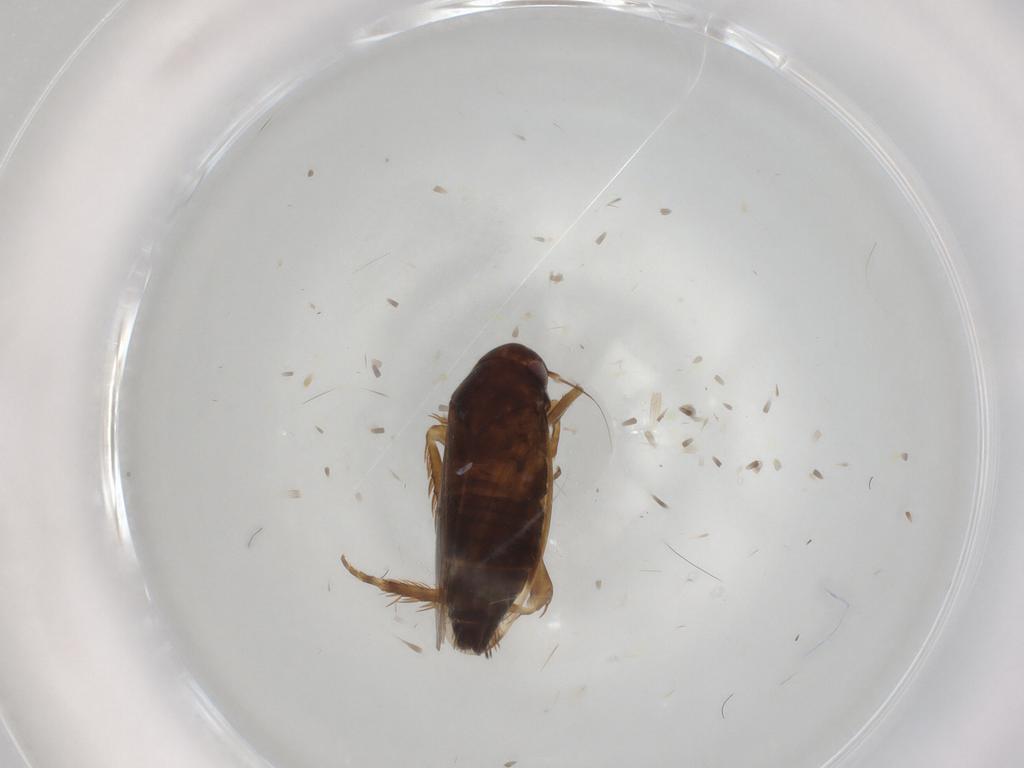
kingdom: Animalia
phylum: Arthropoda
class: Insecta
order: Hemiptera
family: Cicadellidae
